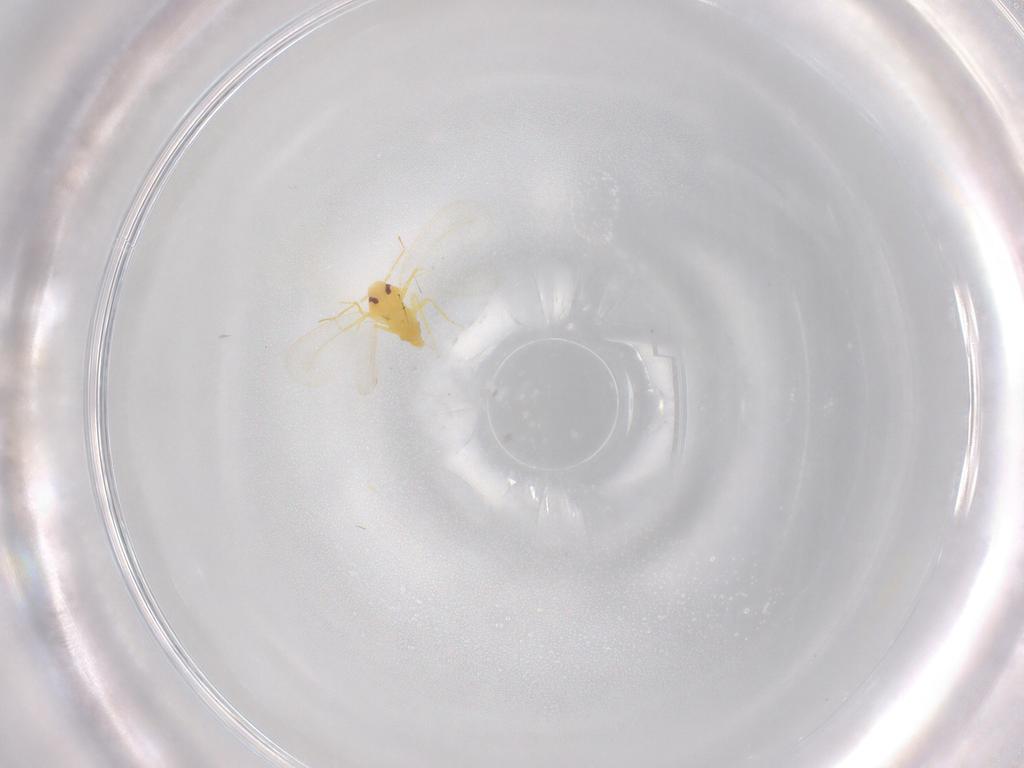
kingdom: Animalia
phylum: Arthropoda
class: Insecta
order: Hemiptera
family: Aleyrodidae
